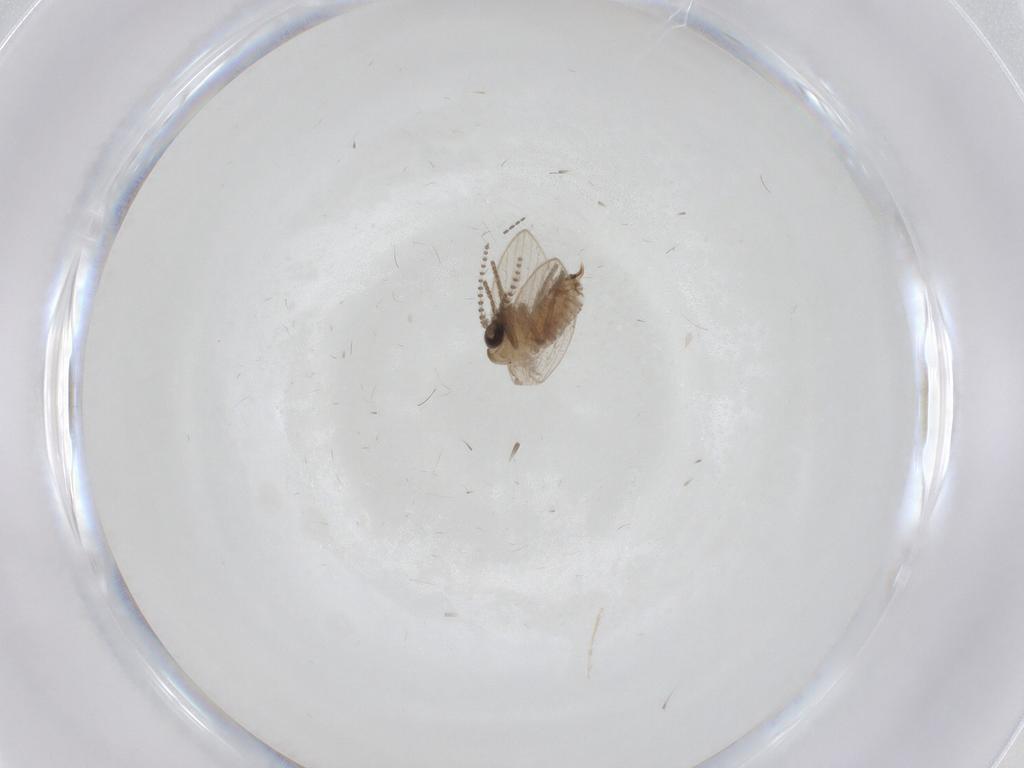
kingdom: Animalia
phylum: Arthropoda
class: Insecta
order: Diptera
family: Psychodidae
